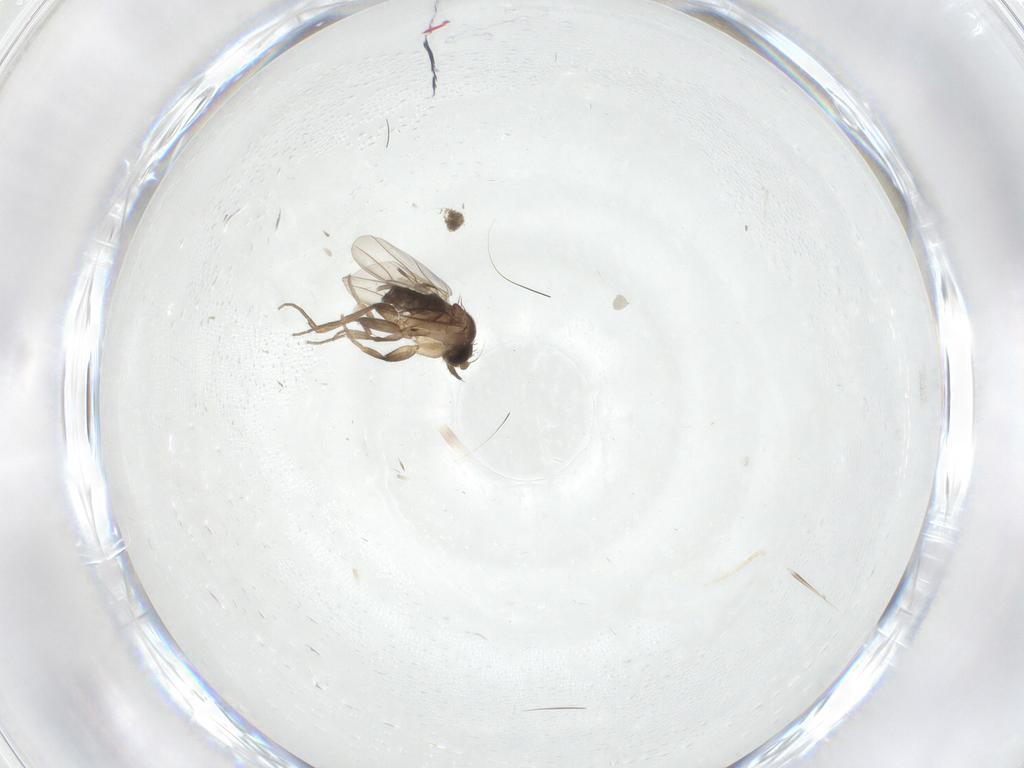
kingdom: Animalia
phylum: Arthropoda
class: Insecta
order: Diptera
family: Asilidae
